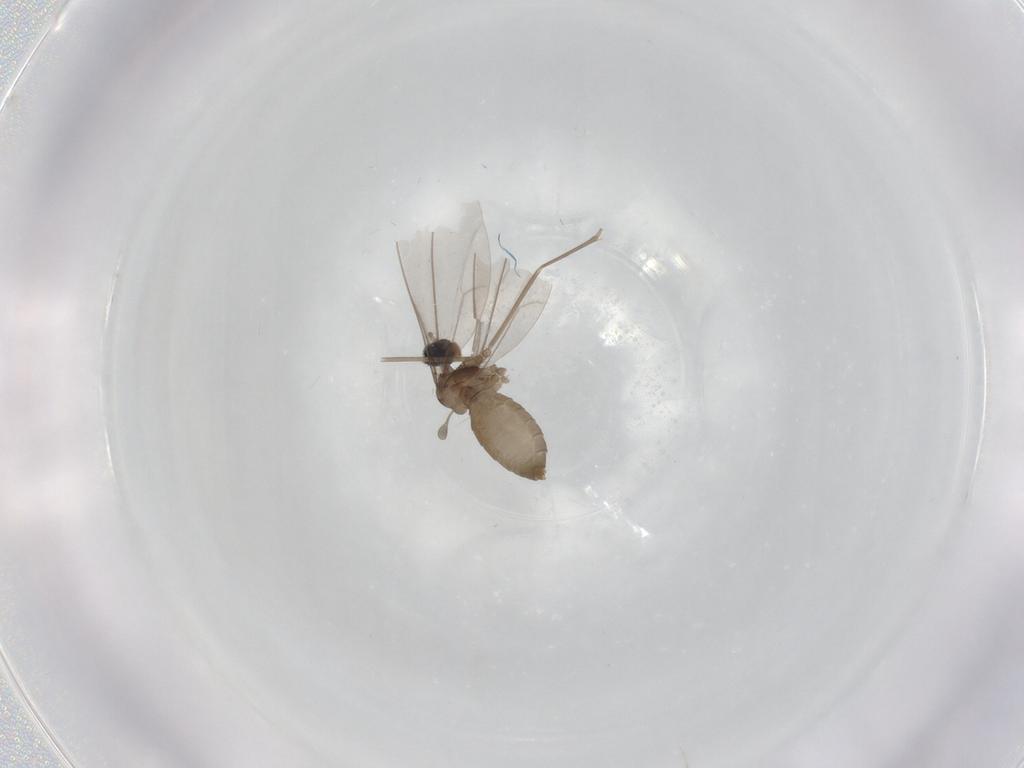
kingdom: Animalia
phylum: Arthropoda
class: Insecta
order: Diptera
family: Cecidomyiidae
